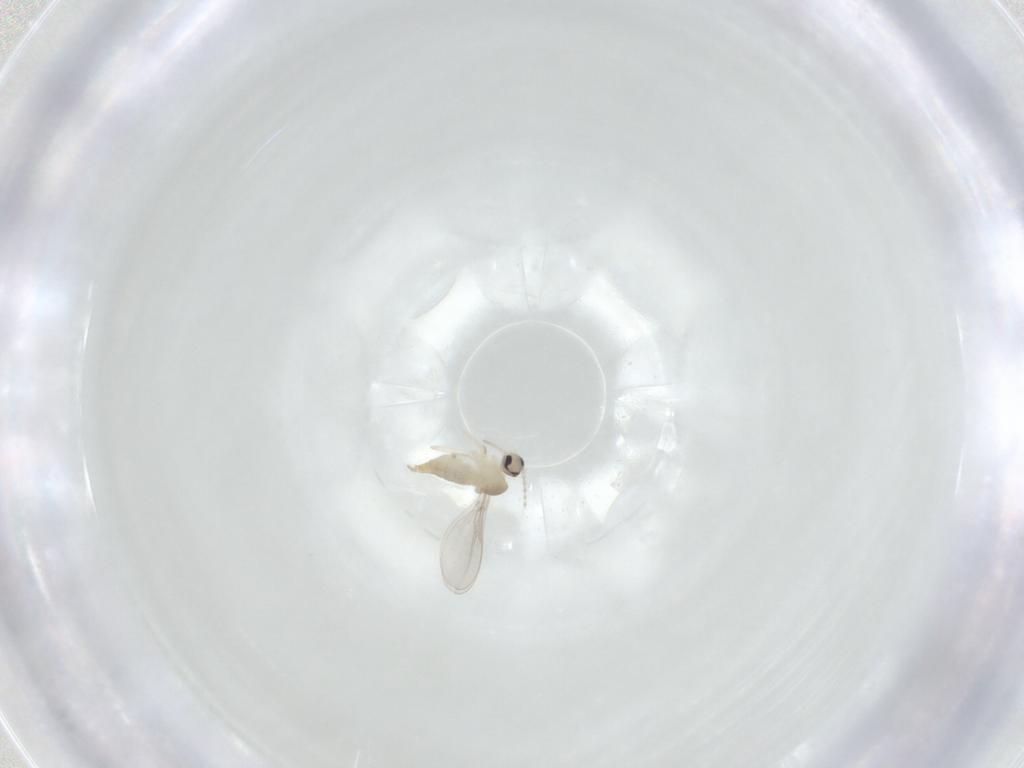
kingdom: Animalia
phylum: Arthropoda
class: Insecta
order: Diptera
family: Cecidomyiidae
